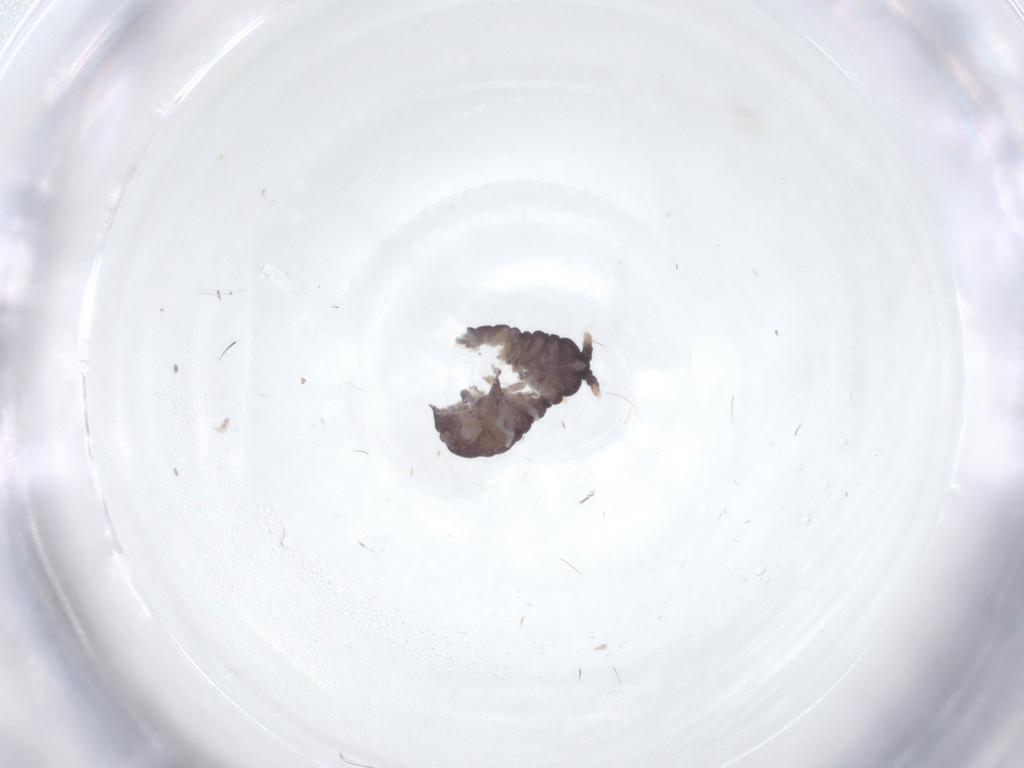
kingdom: Animalia
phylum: Arthropoda
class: Collembola
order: Poduromorpha
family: Neanuridae
